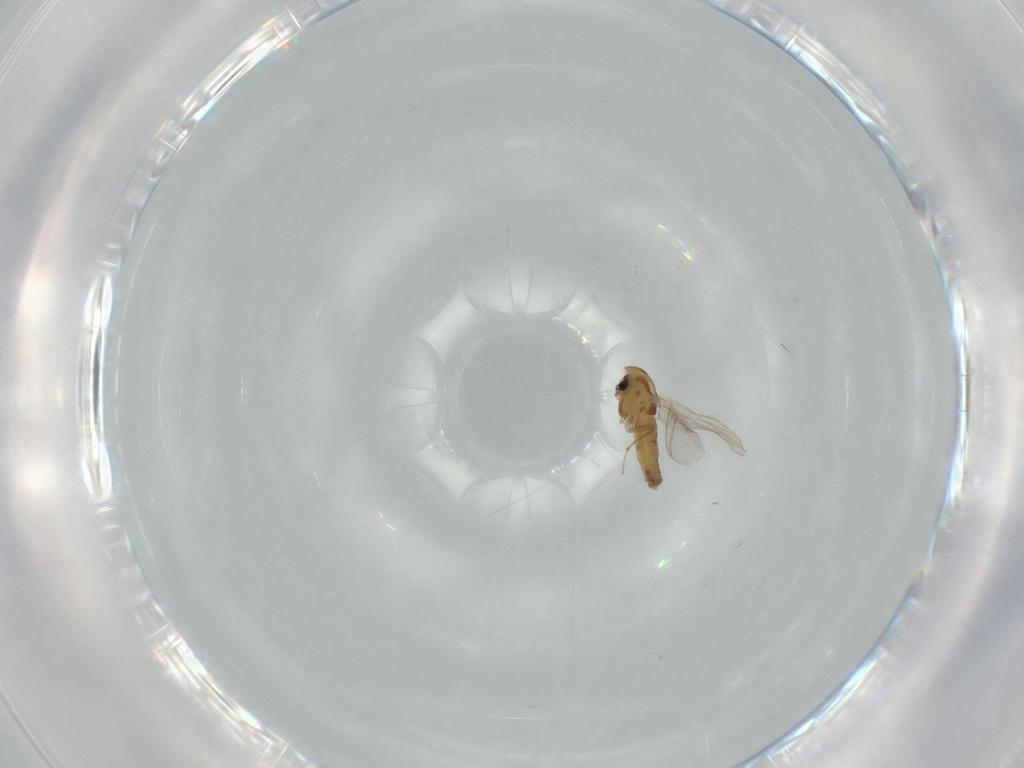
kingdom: Animalia
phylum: Arthropoda
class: Insecta
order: Diptera
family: Chironomidae
